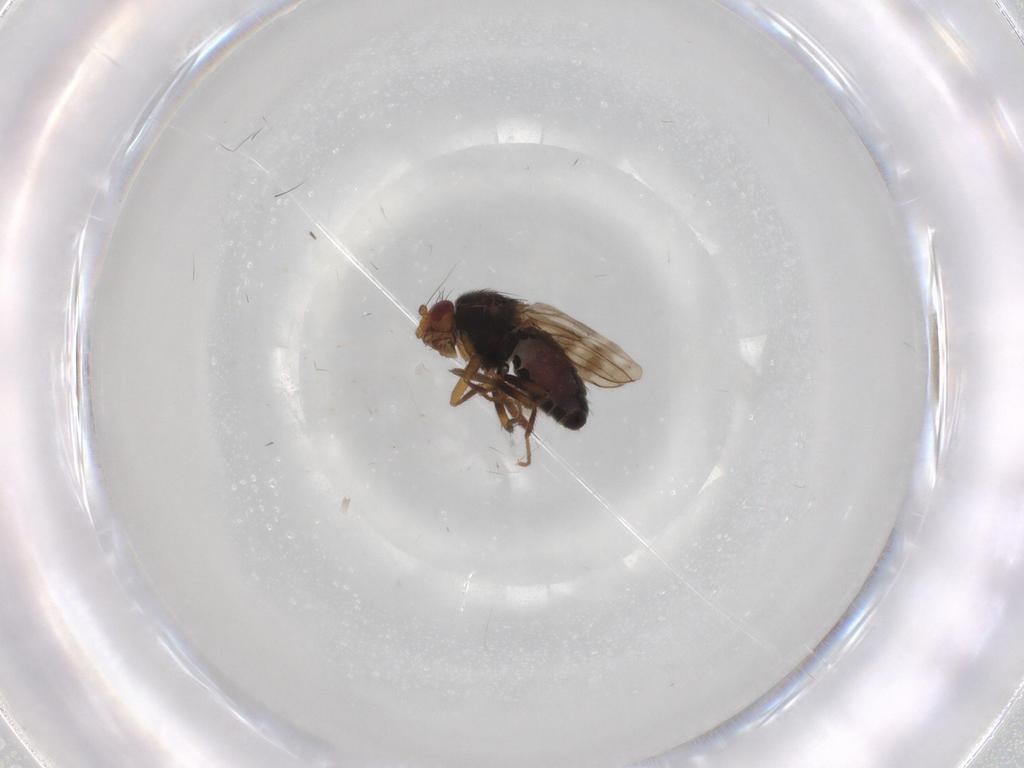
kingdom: Animalia
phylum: Arthropoda
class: Insecta
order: Diptera
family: Sphaeroceridae
